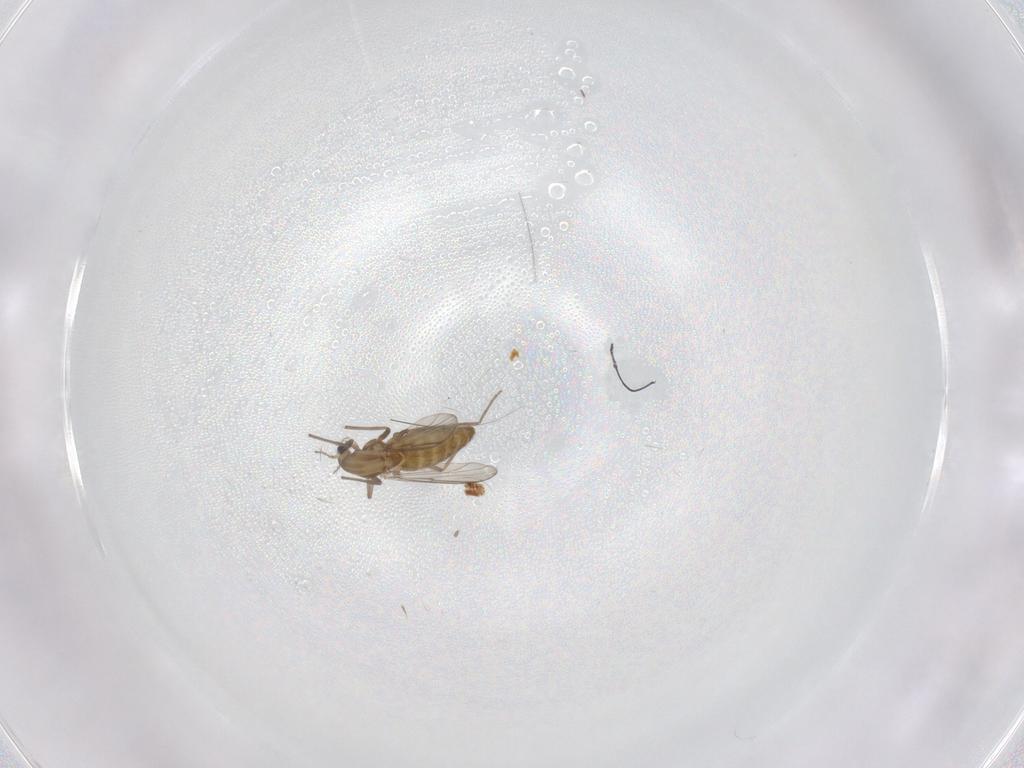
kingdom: Animalia
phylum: Arthropoda
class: Insecta
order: Diptera
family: Chironomidae
